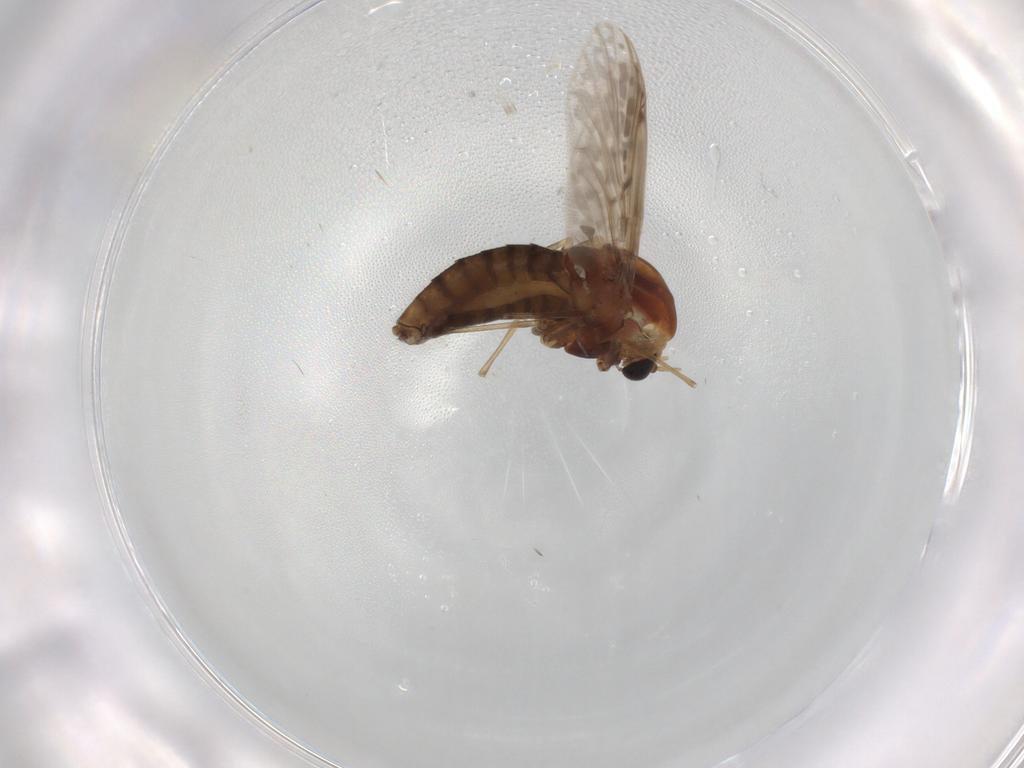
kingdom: Animalia
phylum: Arthropoda
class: Insecta
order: Diptera
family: Chironomidae
